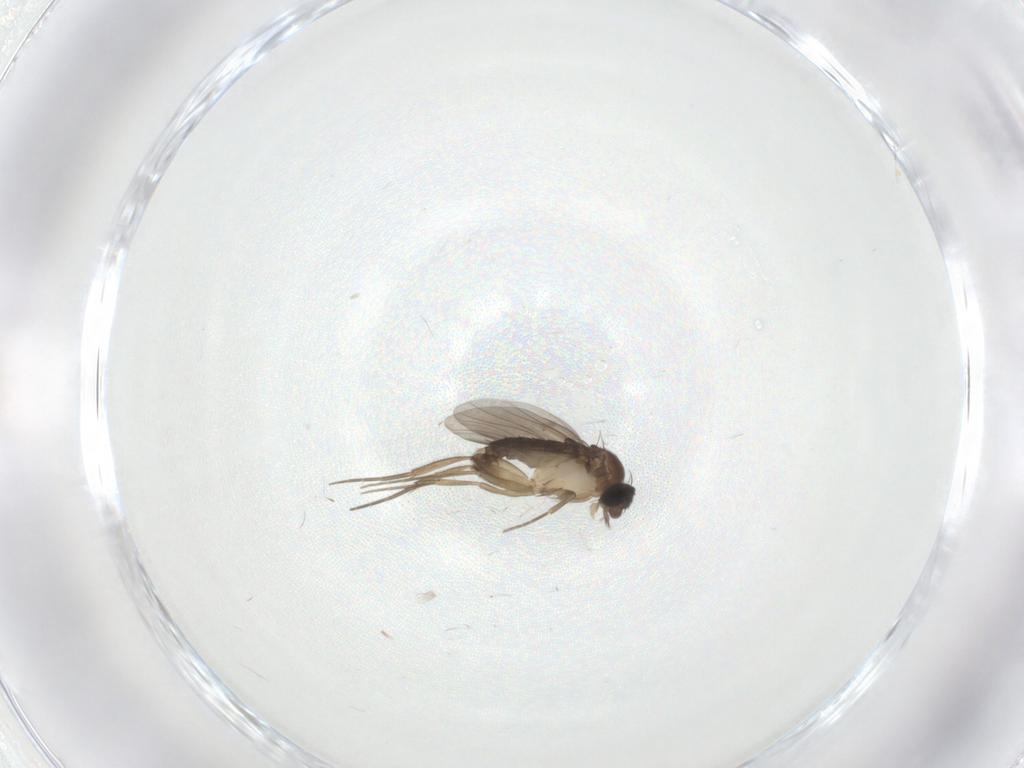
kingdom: Animalia
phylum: Arthropoda
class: Insecta
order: Diptera
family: Phoridae
